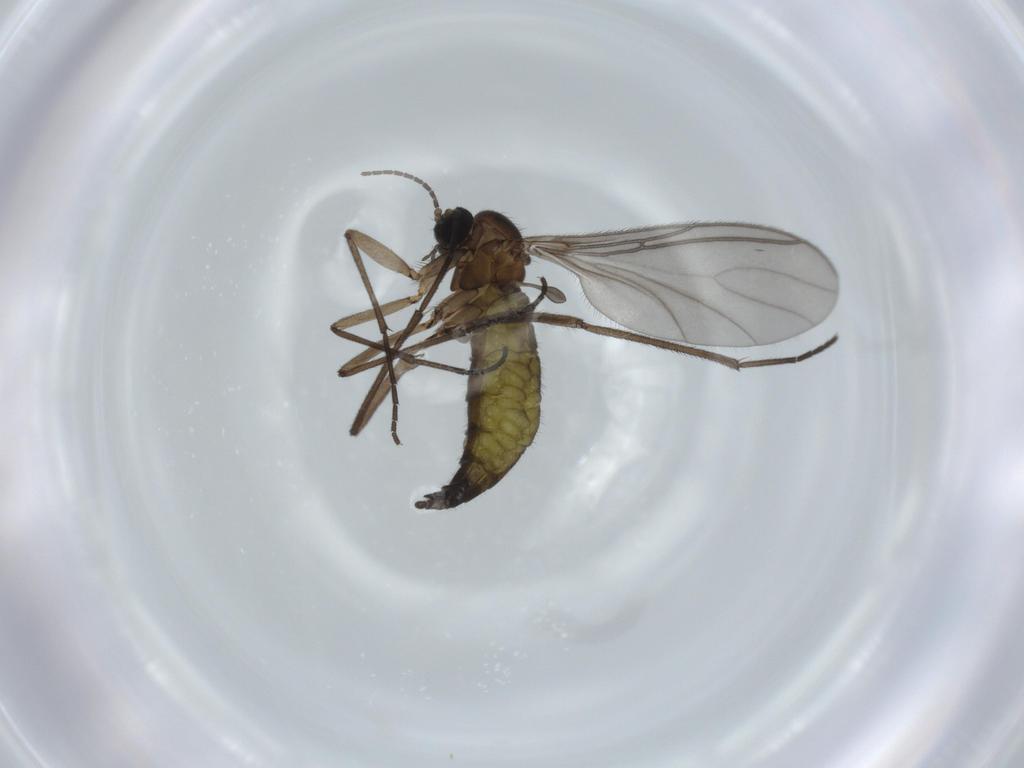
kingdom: Animalia
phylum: Arthropoda
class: Insecta
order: Diptera
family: Sciaridae
